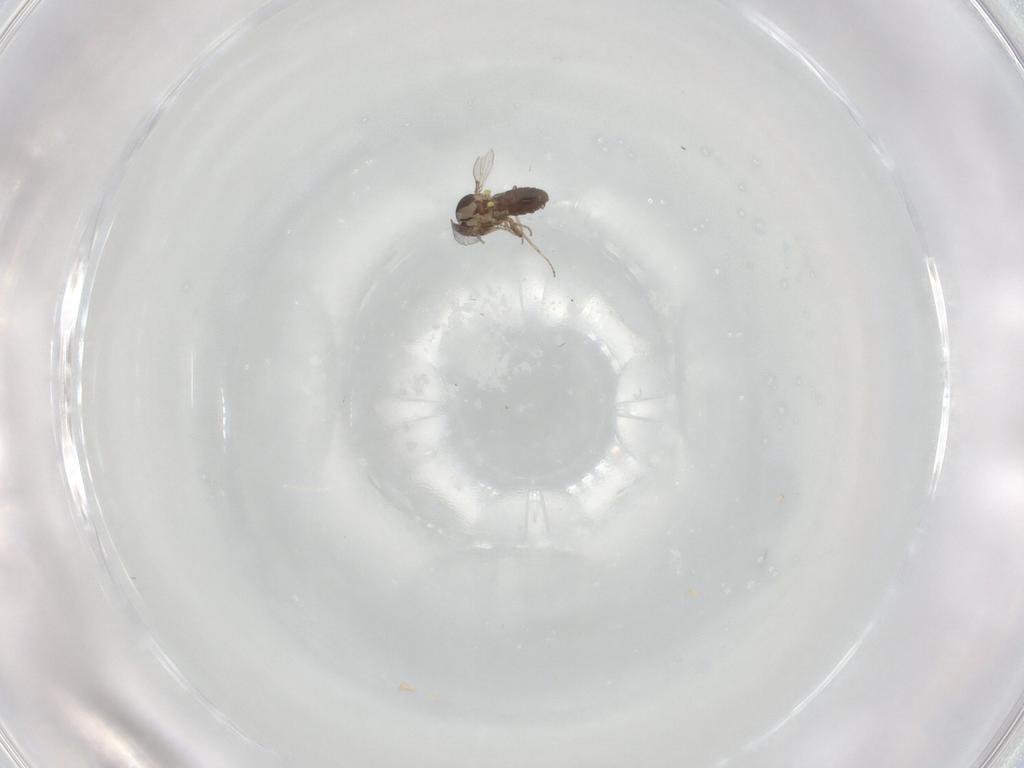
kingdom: Animalia
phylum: Arthropoda
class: Insecta
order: Diptera
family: Ceratopogonidae
